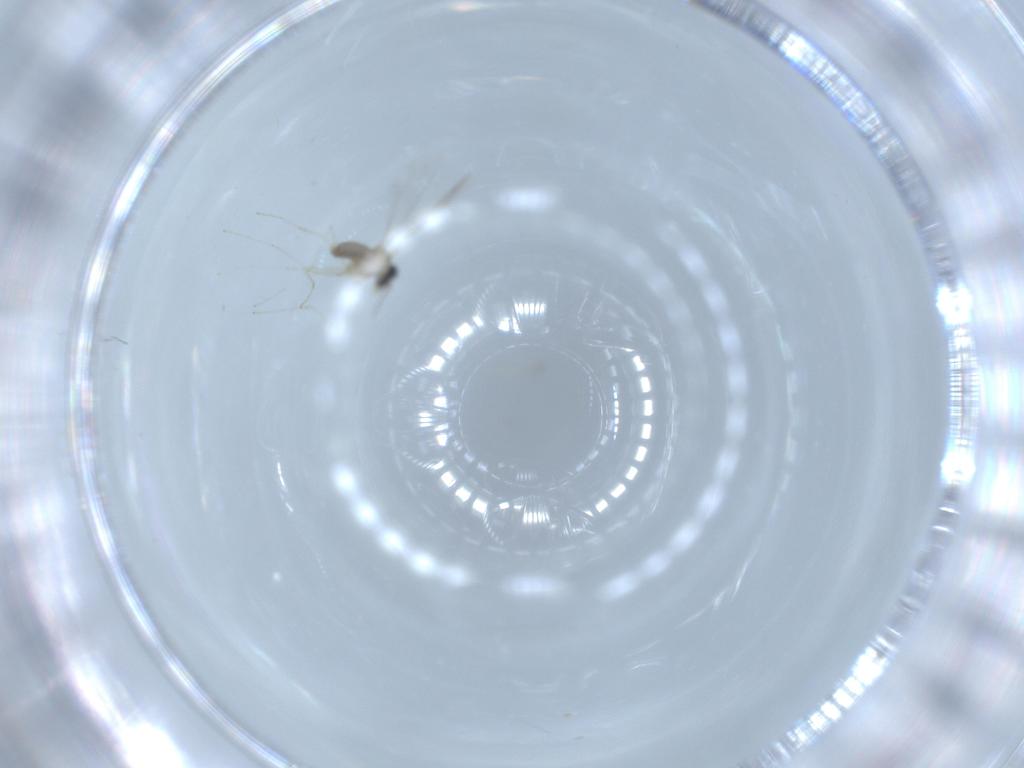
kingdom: Animalia
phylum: Arthropoda
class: Insecta
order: Diptera
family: Cecidomyiidae
